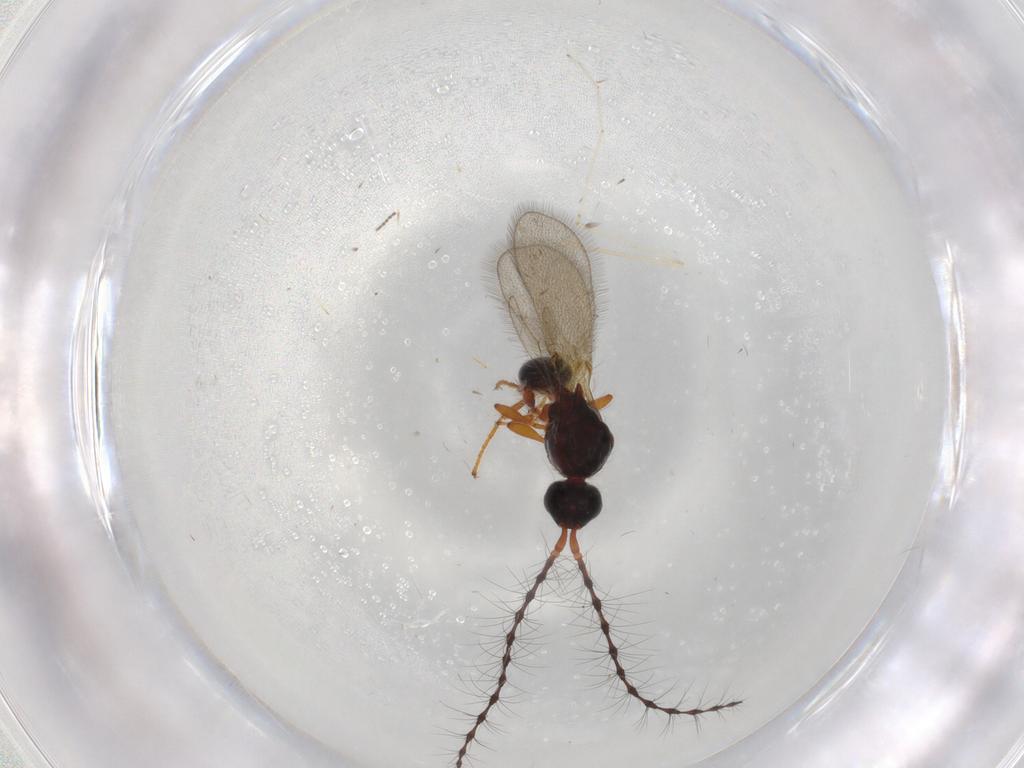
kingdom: Animalia
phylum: Arthropoda
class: Insecta
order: Hymenoptera
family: Diapriidae
